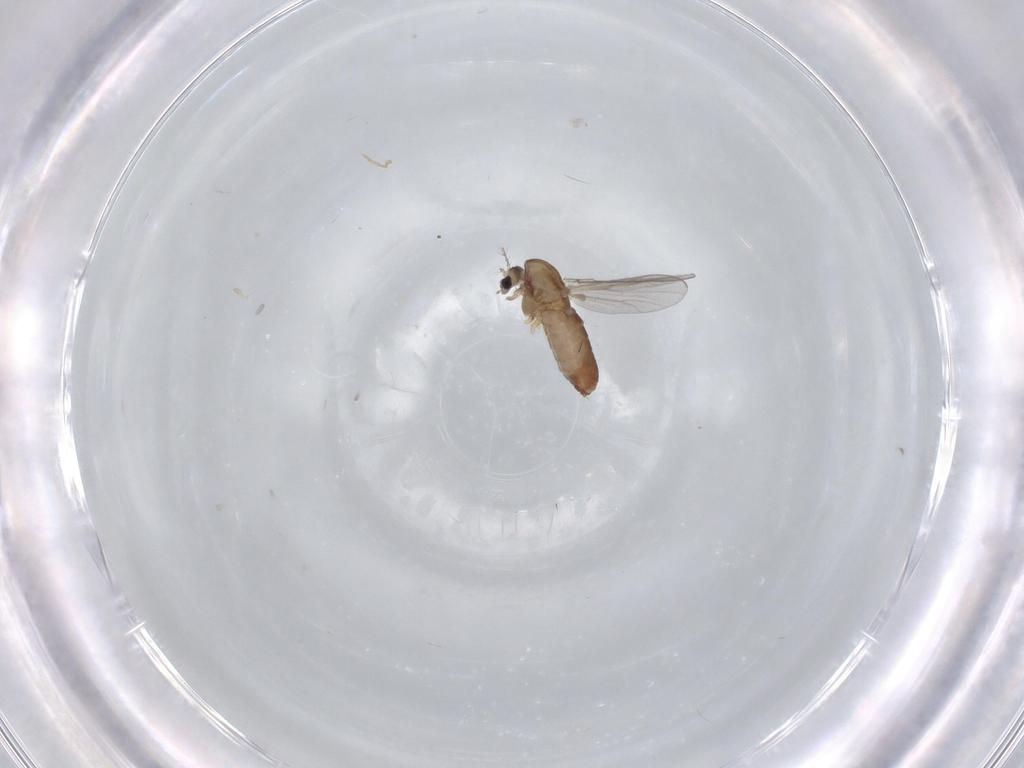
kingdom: Animalia
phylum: Arthropoda
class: Insecta
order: Diptera
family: Chironomidae
